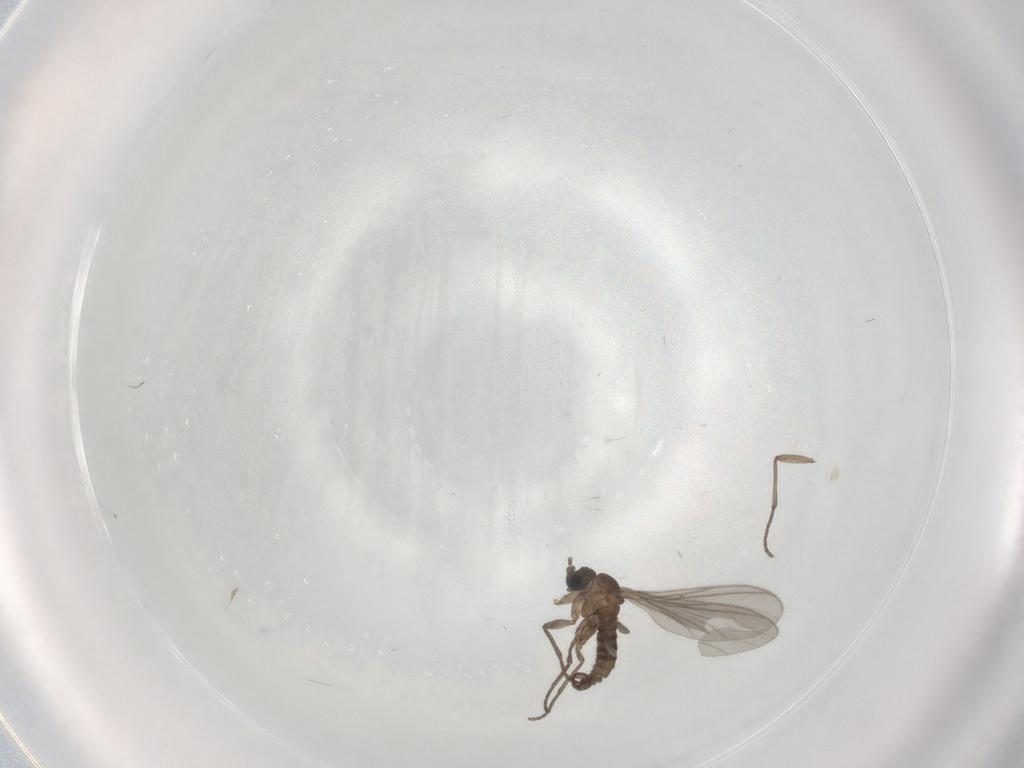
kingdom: Animalia
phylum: Arthropoda
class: Insecta
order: Diptera
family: Sciaridae
